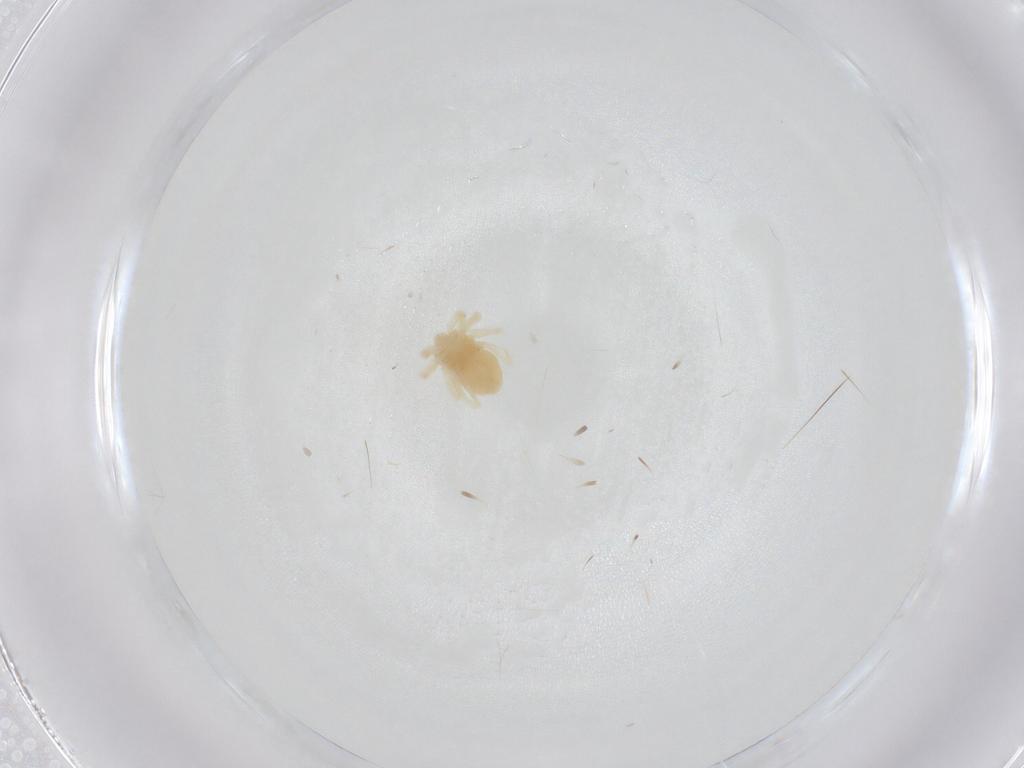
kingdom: Animalia
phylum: Arthropoda
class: Arachnida
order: Trombidiformes
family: Anystidae
